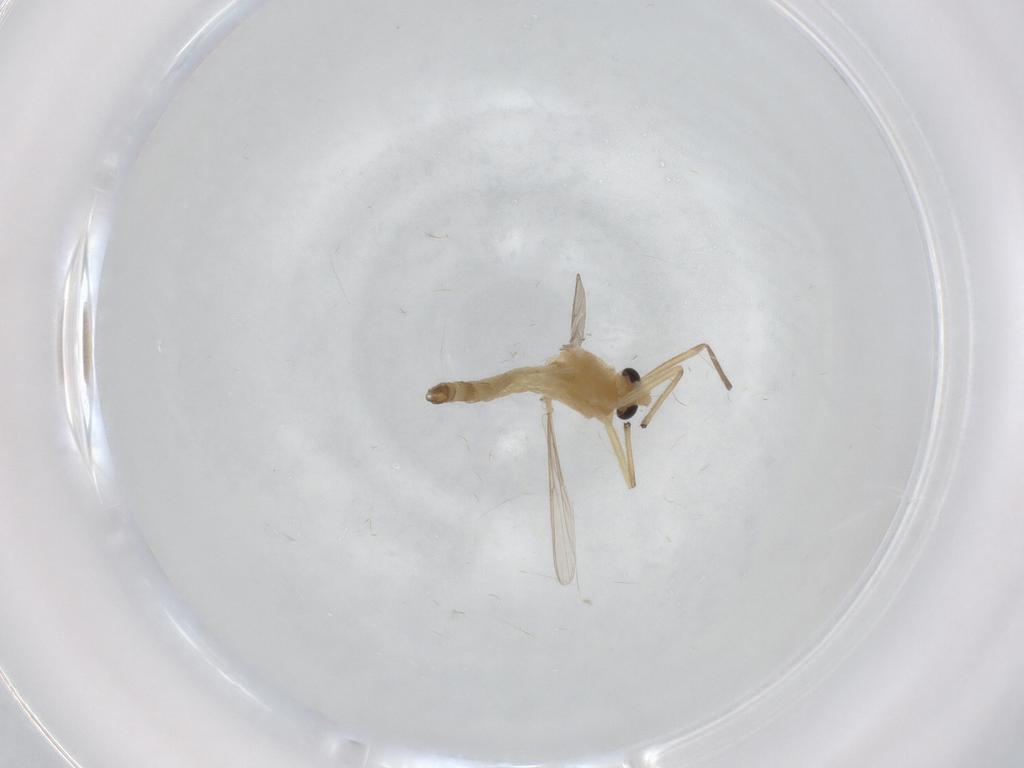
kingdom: Animalia
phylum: Arthropoda
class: Insecta
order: Diptera
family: Chironomidae
